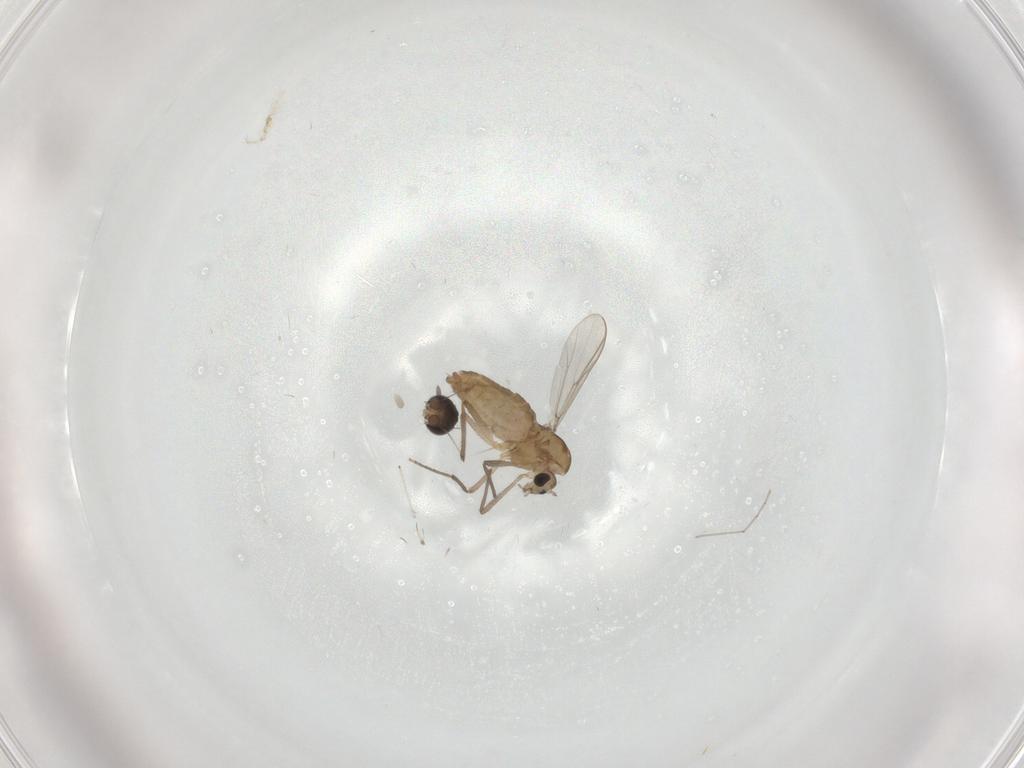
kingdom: Animalia
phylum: Arthropoda
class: Insecta
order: Diptera
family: Chironomidae
